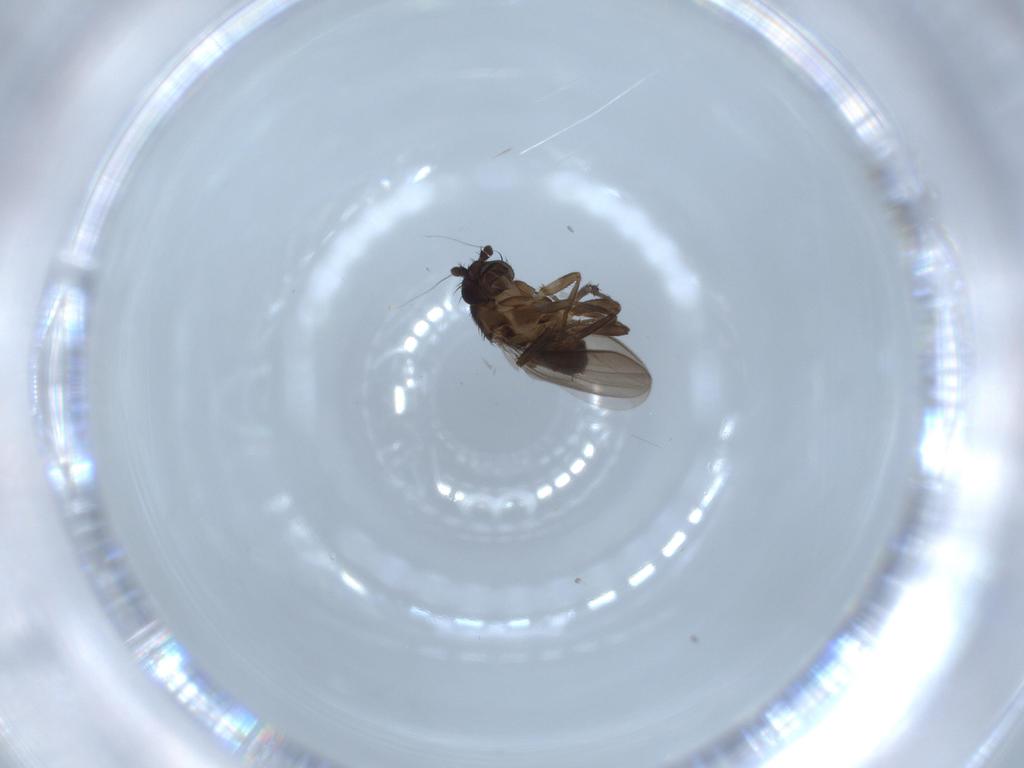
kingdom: Animalia
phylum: Arthropoda
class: Insecta
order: Diptera
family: Sphaeroceridae
